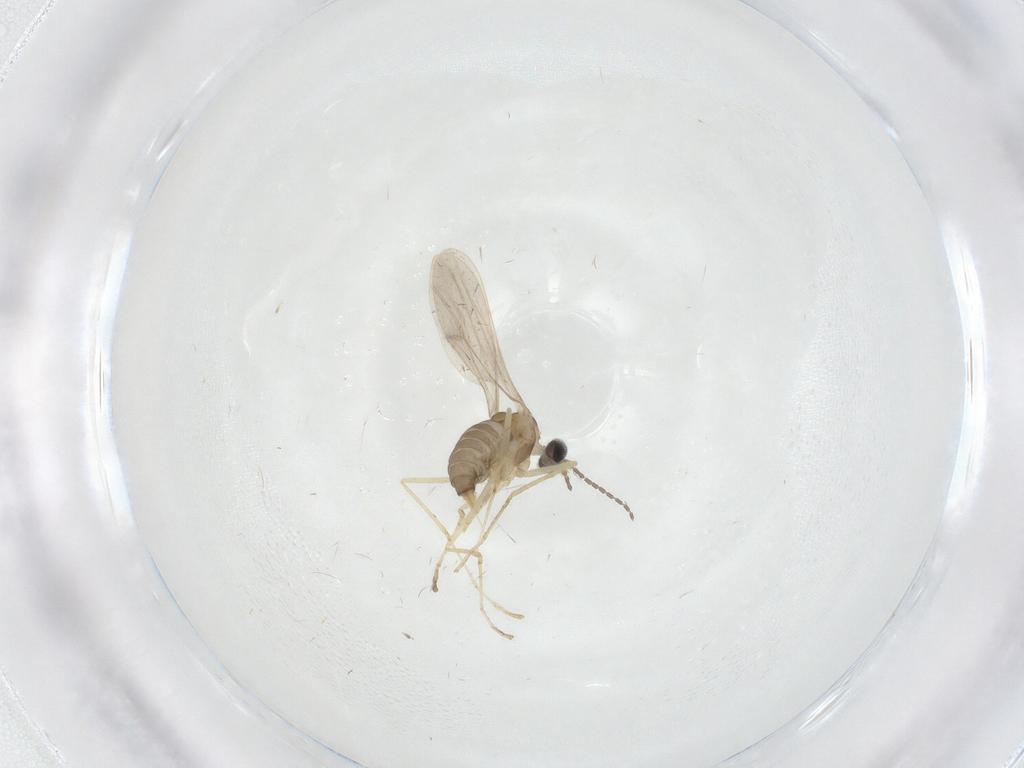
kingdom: Animalia
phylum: Arthropoda
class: Insecta
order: Diptera
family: Cecidomyiidae
